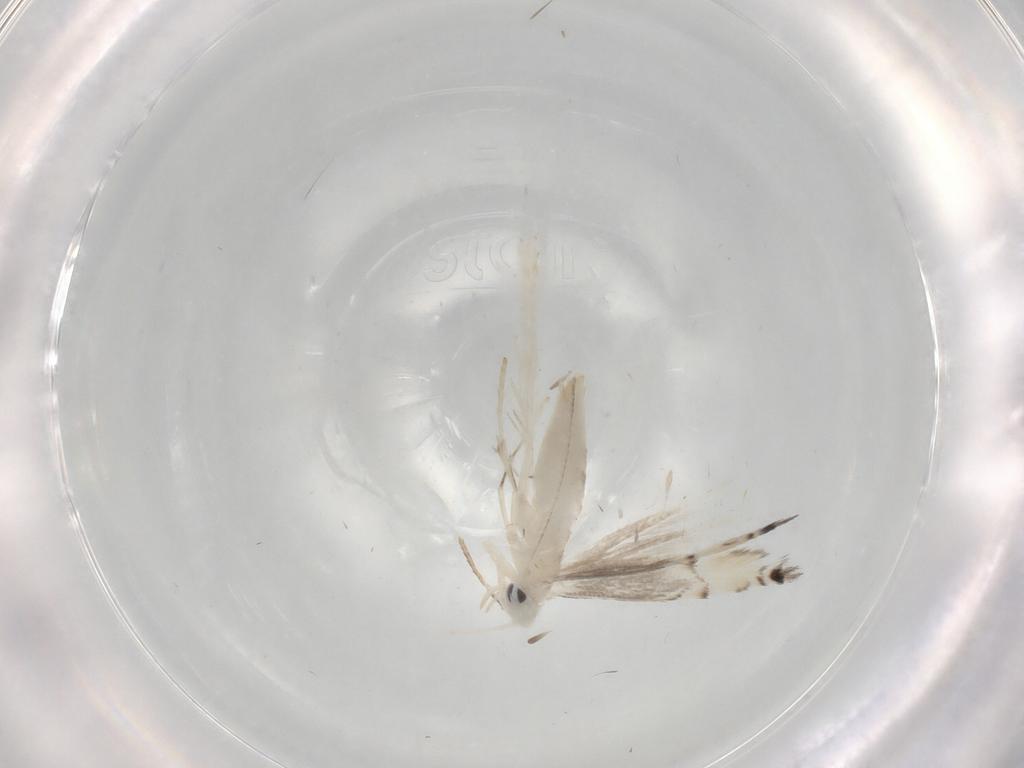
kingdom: Animalia
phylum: Arthropoda
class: Insecta
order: Lepidoptera
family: Gracillariidae
